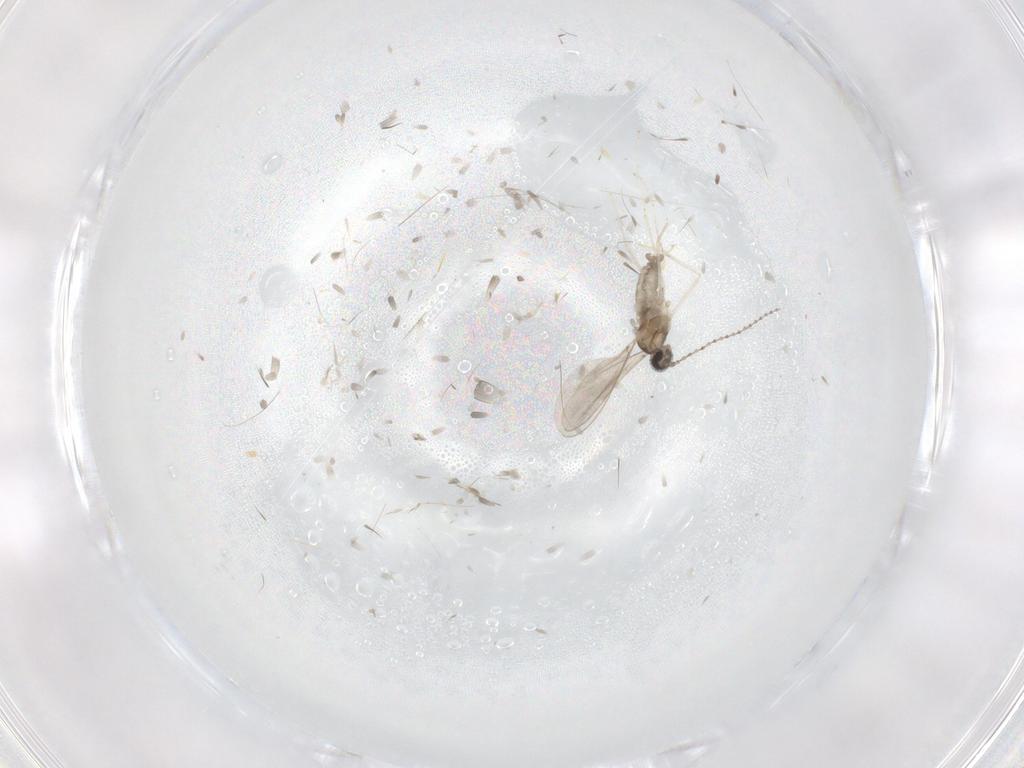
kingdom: Animalia
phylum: Arthropoda
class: Insecta
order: Diptera
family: Cecidomyiidae
